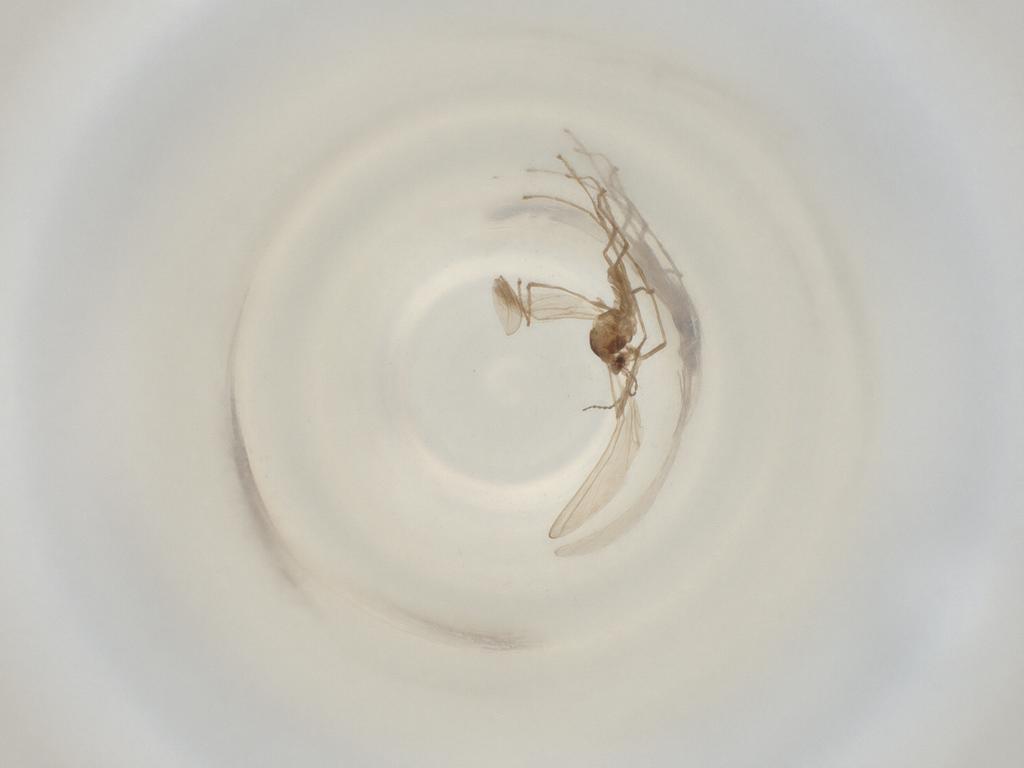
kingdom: Animalia
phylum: Arthropoda
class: Insecta
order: Diptera
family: Cecidomyiidae
